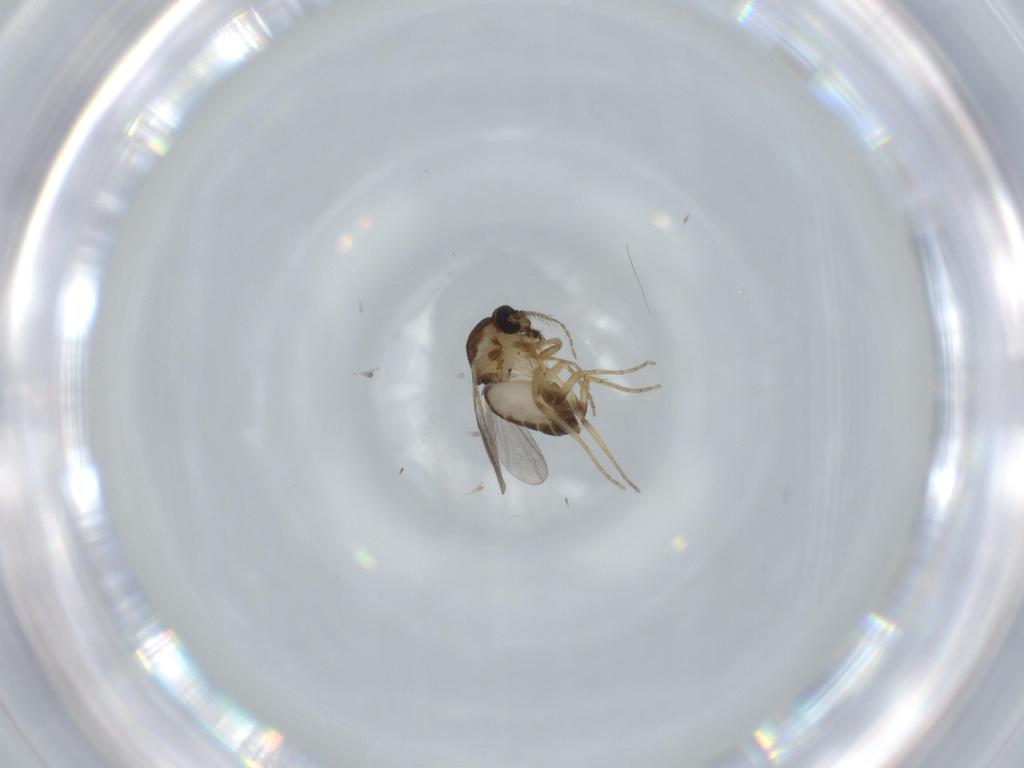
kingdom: Animalia
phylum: Arthropoda
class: Insecta
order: Diptera
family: Ceratopogonidae
